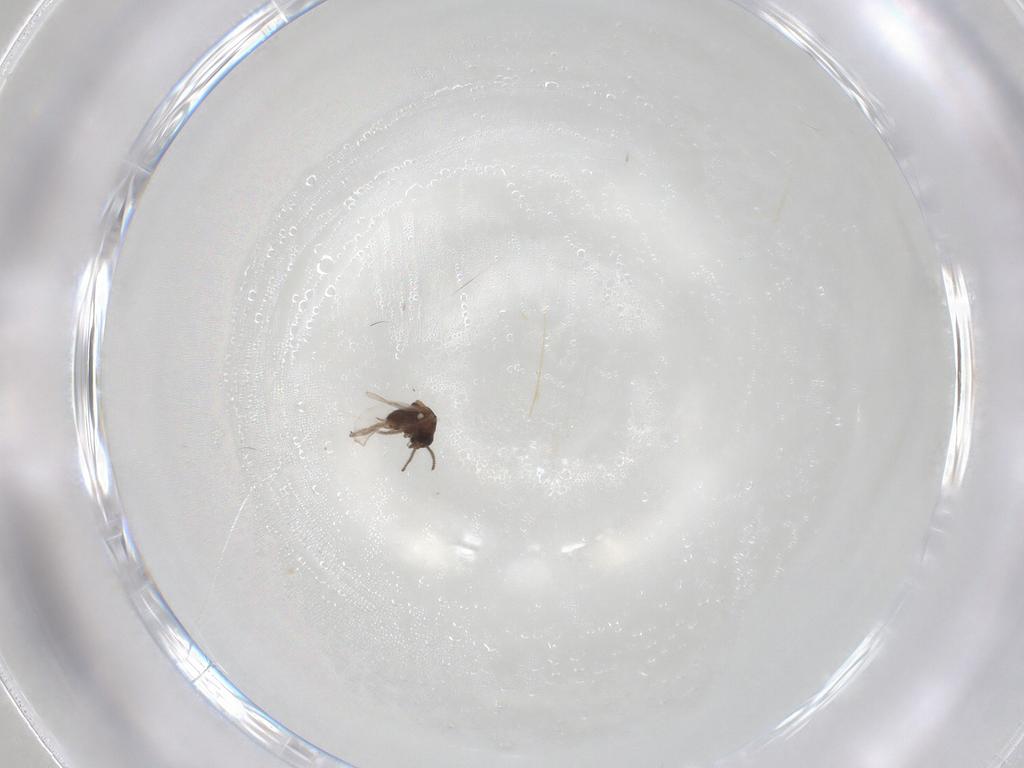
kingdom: Animalia
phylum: Arthropoda
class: Insecta
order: Diptera
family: Ceratopogonidae
